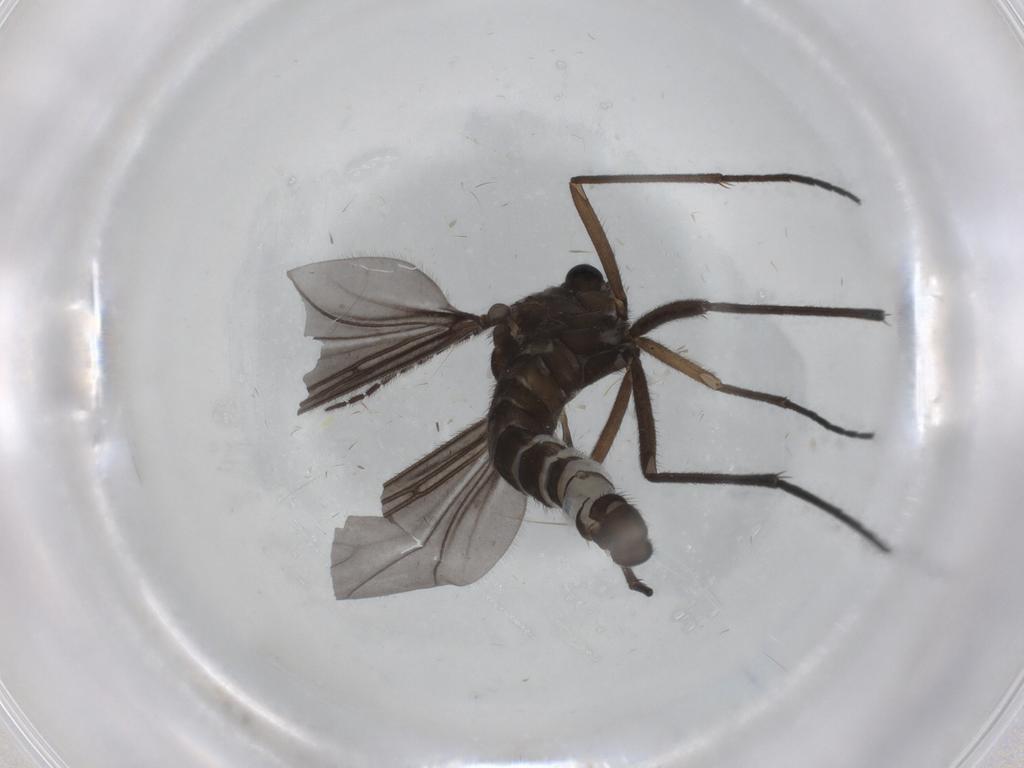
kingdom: Animalia
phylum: Arthropoda
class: Insecta
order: Diptera
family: Sciaridae
